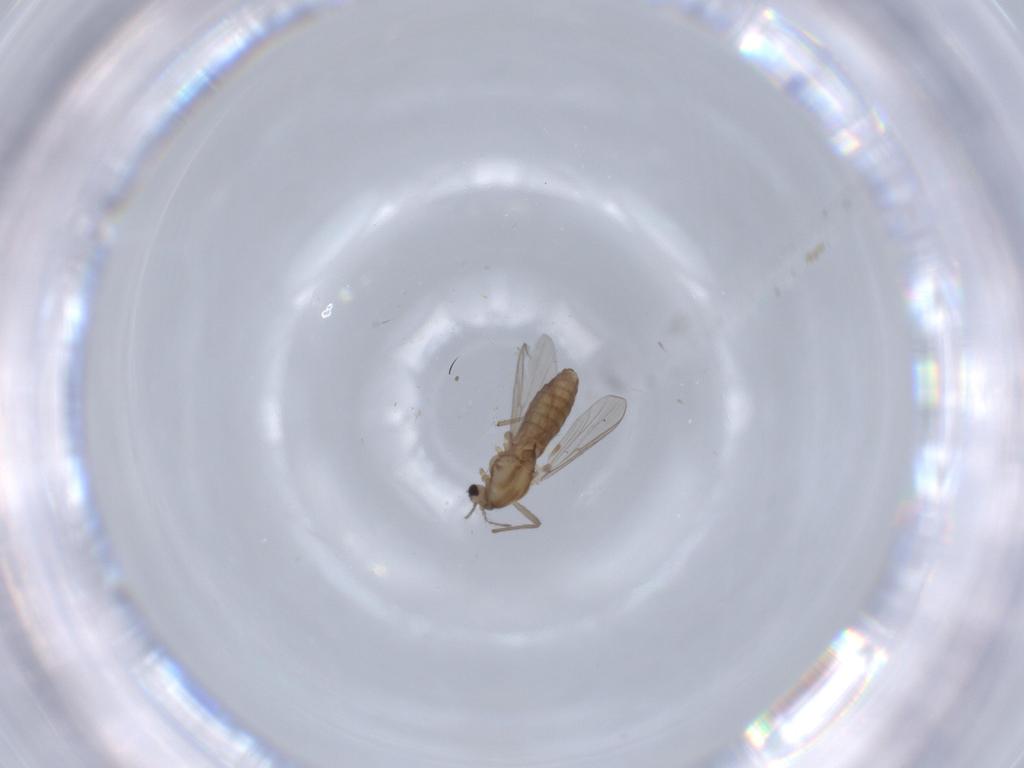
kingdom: Animalia
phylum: Arthropoda
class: Insecta
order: Diptera
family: Chironomidae
